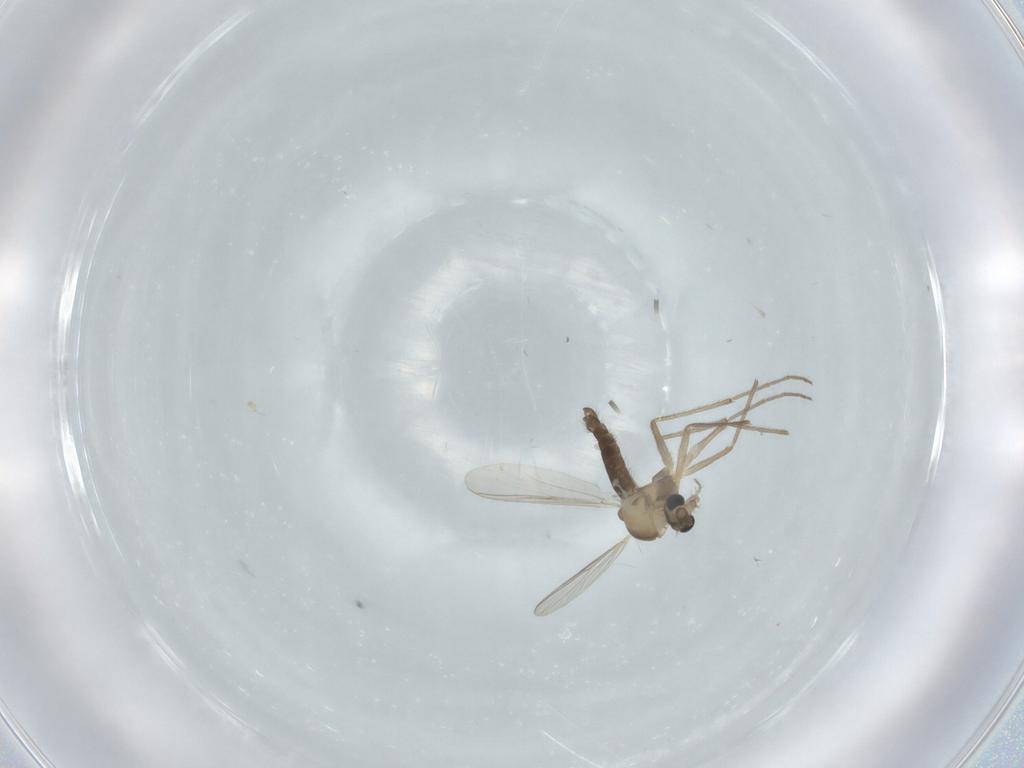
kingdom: Animalia
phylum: Arthropoda
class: Insecta
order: Diptera
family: Chironomidae
